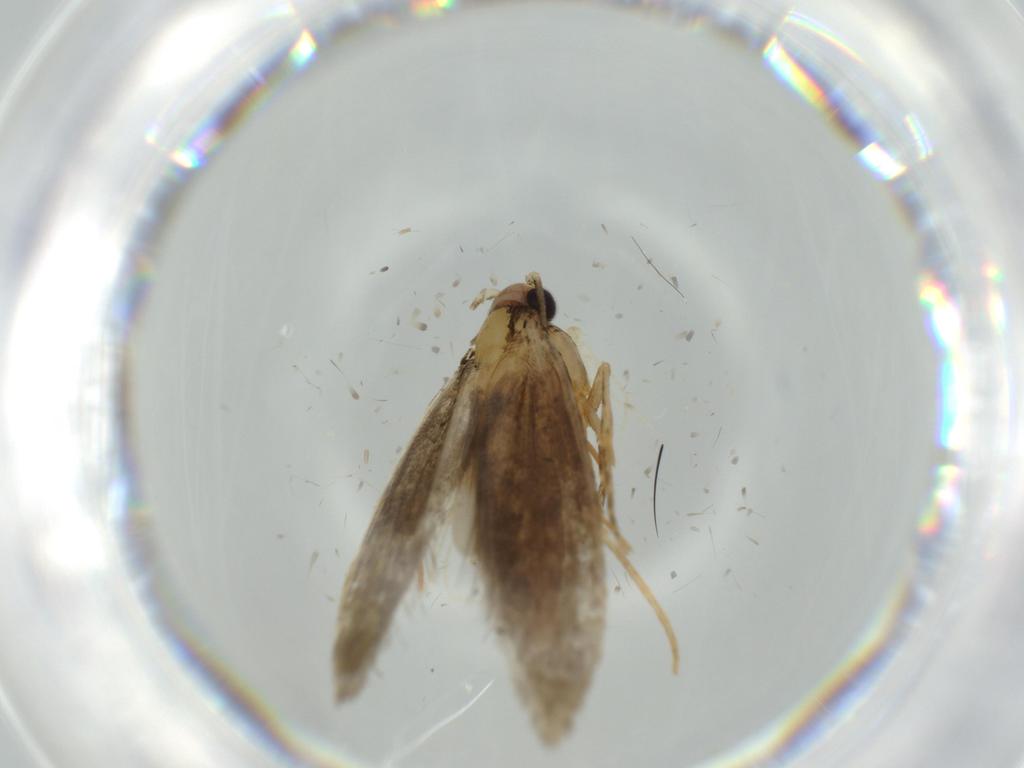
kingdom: Animalia
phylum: Arthropoda
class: Insecta
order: Lepidoptera
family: Tineidae
